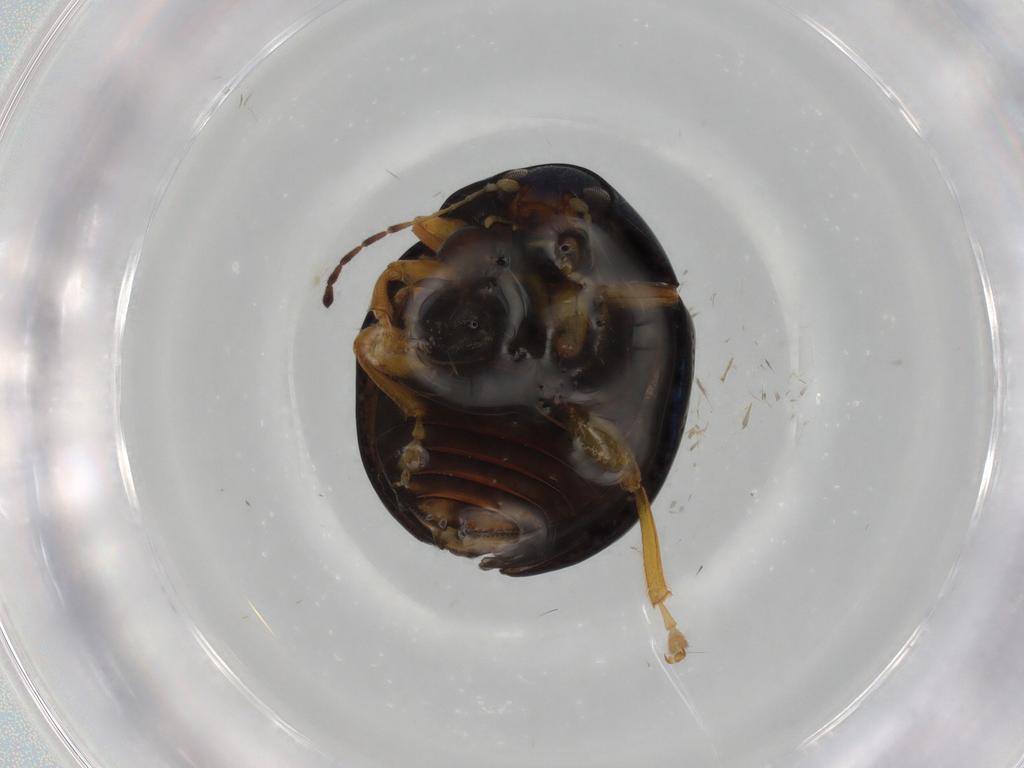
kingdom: Animalia
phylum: Arthropoda
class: Insecta
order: Coleoptera
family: Chrysomelidae
